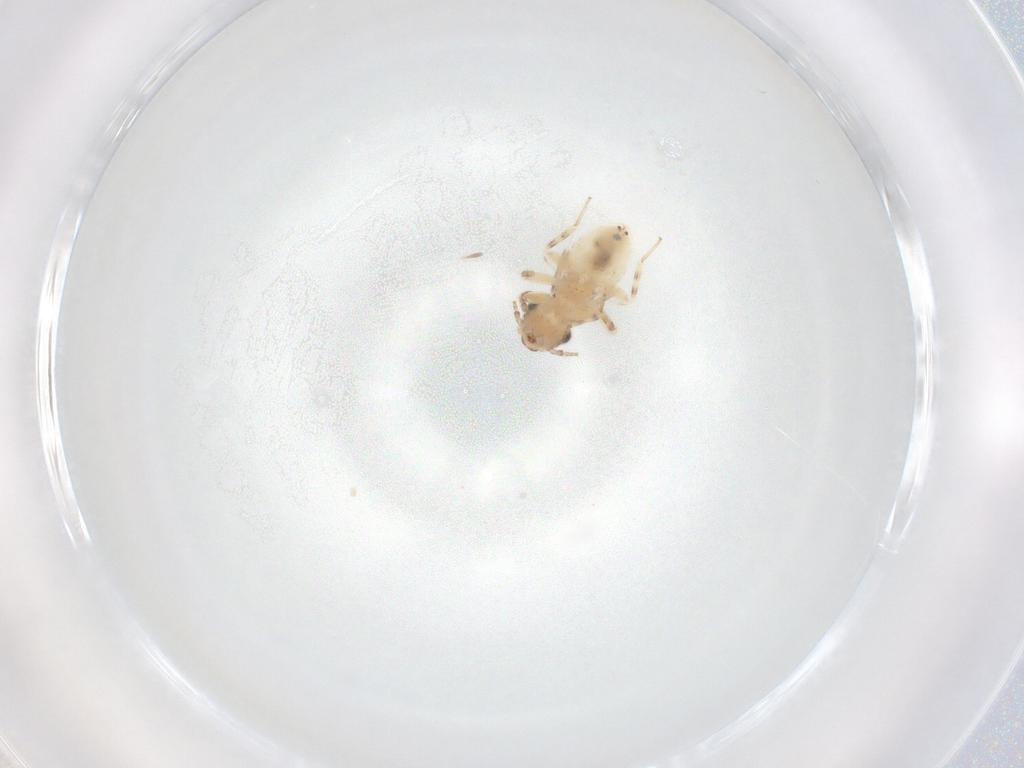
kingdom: Animalia
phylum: Arthropoda
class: Insecta
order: Psocodea
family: Lepidopsocidae
